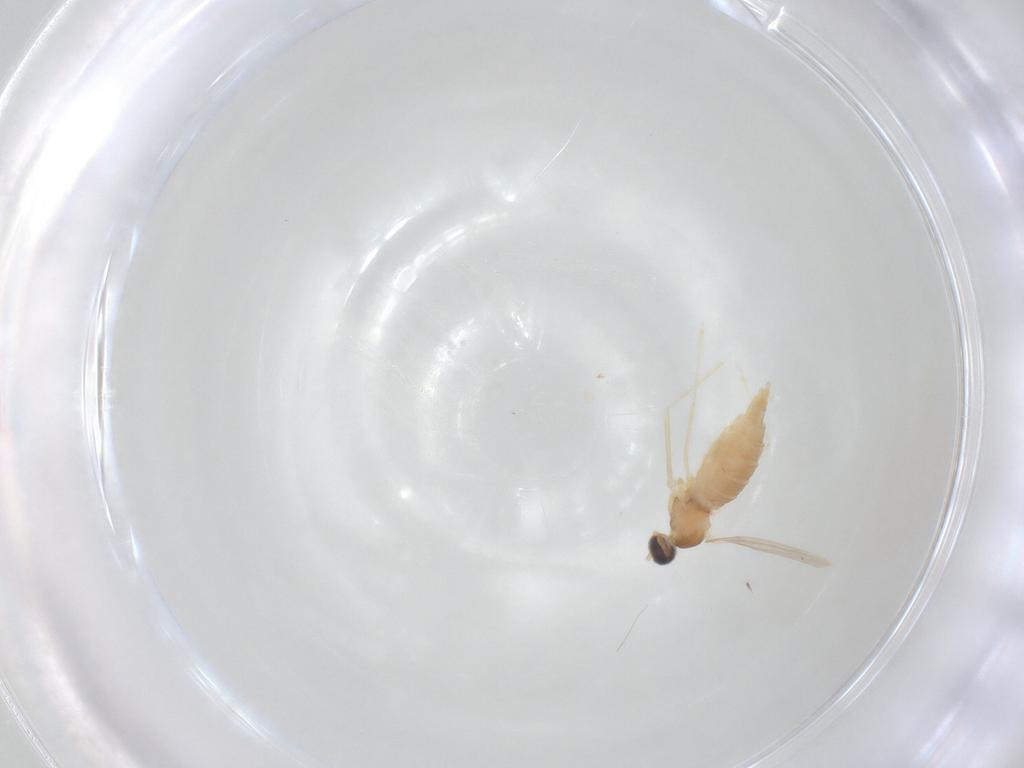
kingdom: Animalia
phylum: Arthropoda
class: Insecta
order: Diptera
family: Cecidomyiidae
